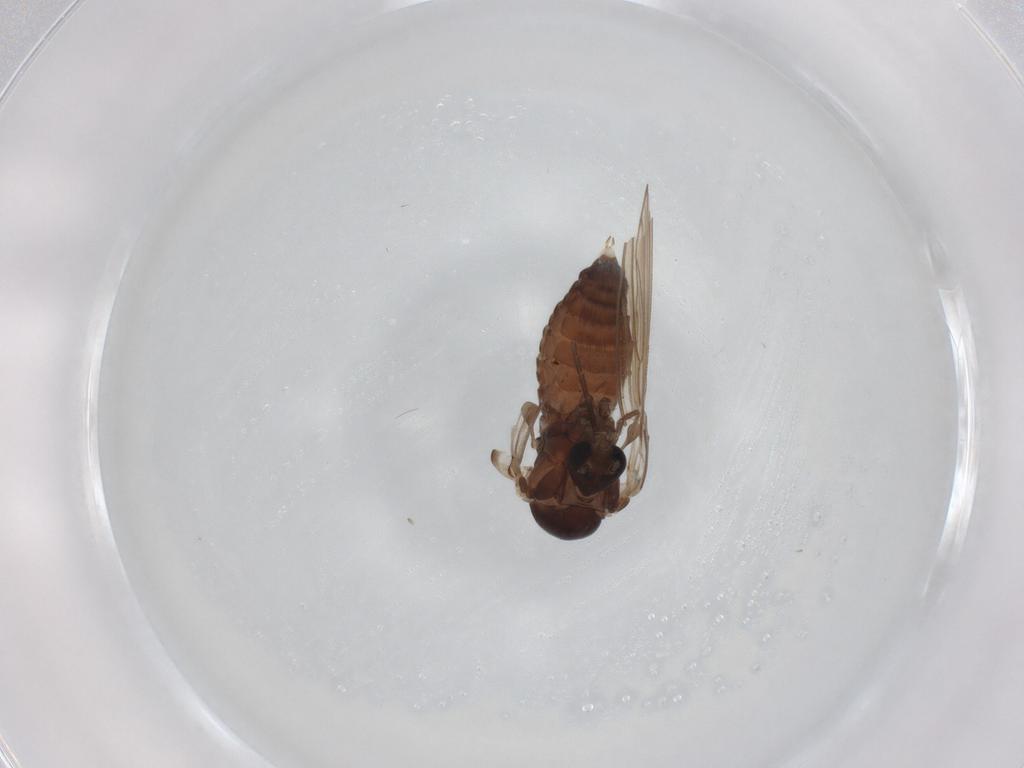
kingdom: Animalia
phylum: Arthropoda
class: Insecta
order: Diptera
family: Psychodidae
